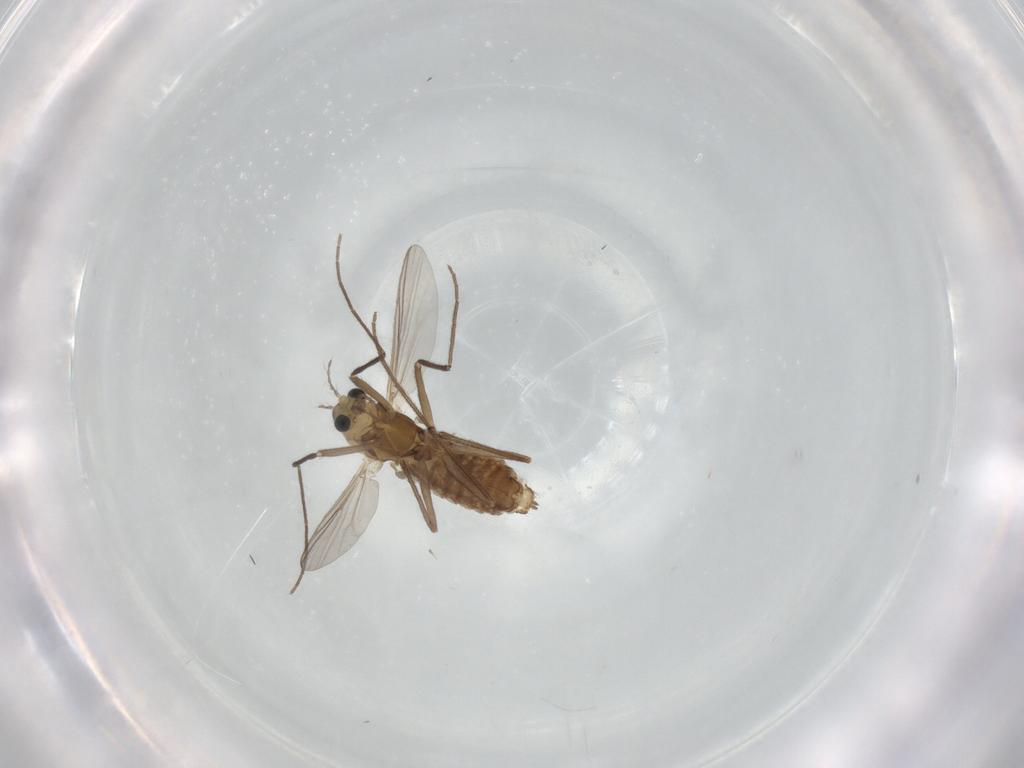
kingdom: Animalia
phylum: Arthropoda
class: Insecta
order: Diptera
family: Chironomidae
